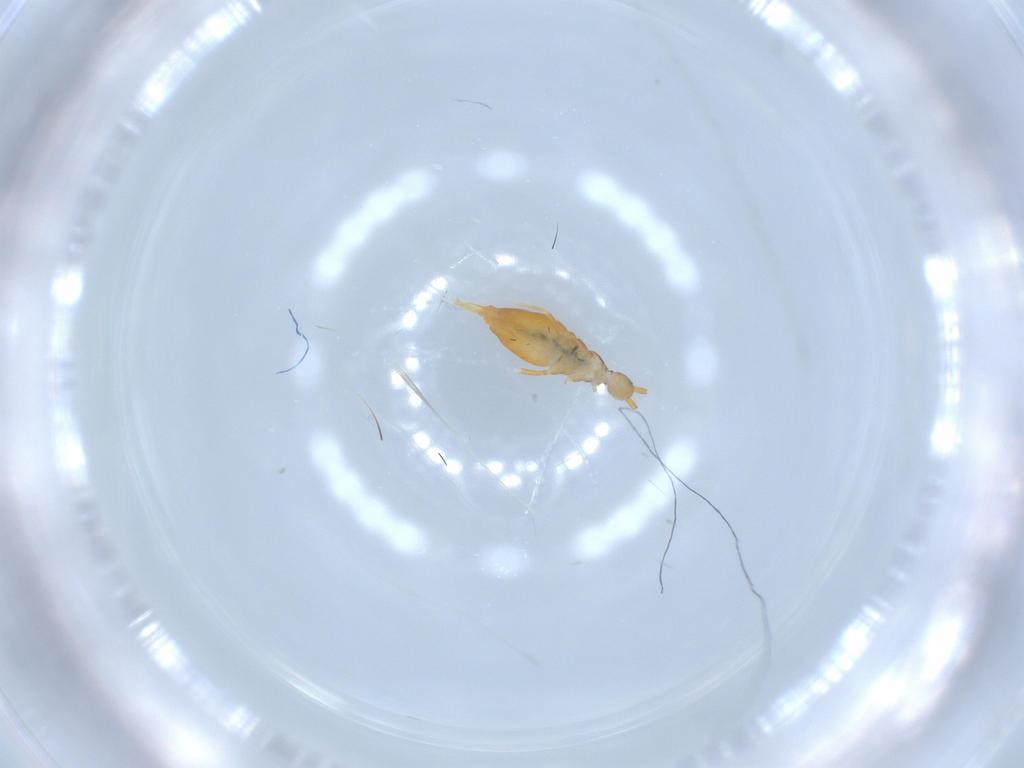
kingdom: Animalia
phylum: Arthropoda
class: Collembola
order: Entomobryomorpha
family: Entomobryidae
